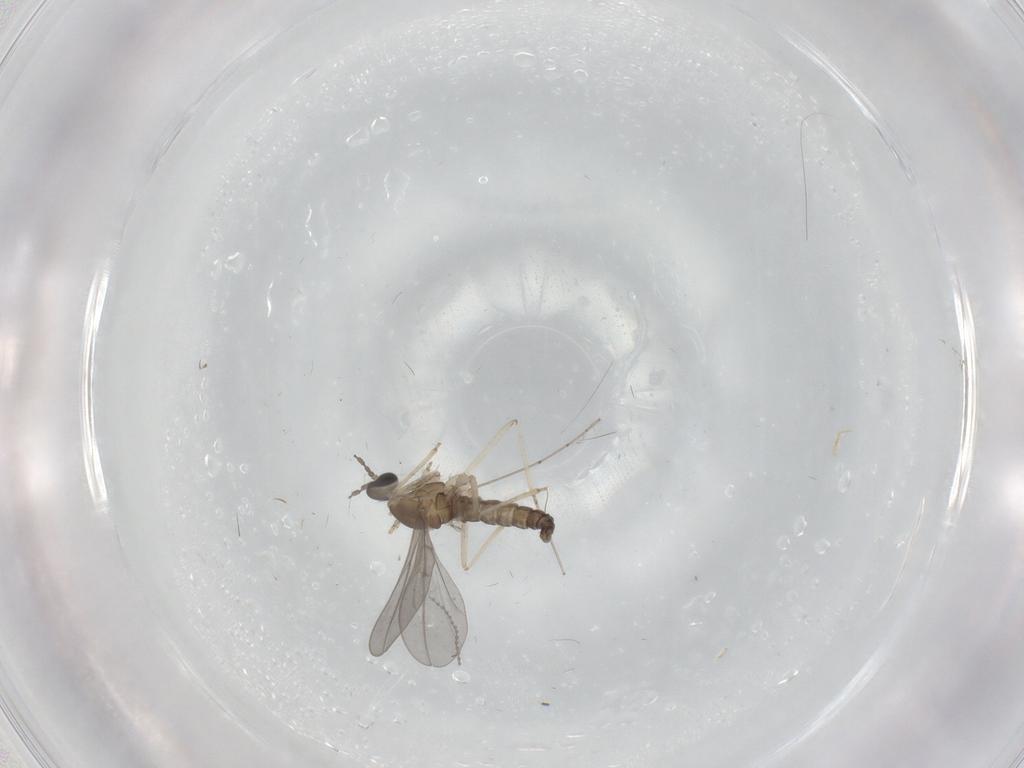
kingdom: Animalia
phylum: Arthropoda
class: Insecta
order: Diptera
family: Cecidomyiidae
